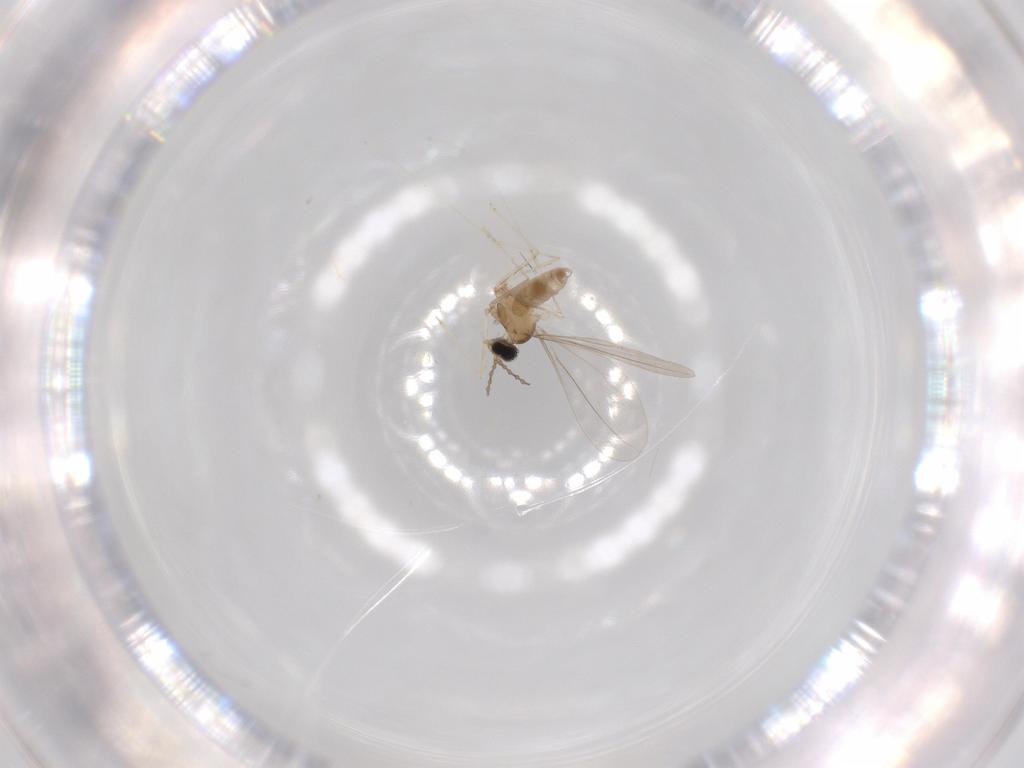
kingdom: Animalia
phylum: Arthropoda
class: Insecta
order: Diptera
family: Cecidomyiidae
